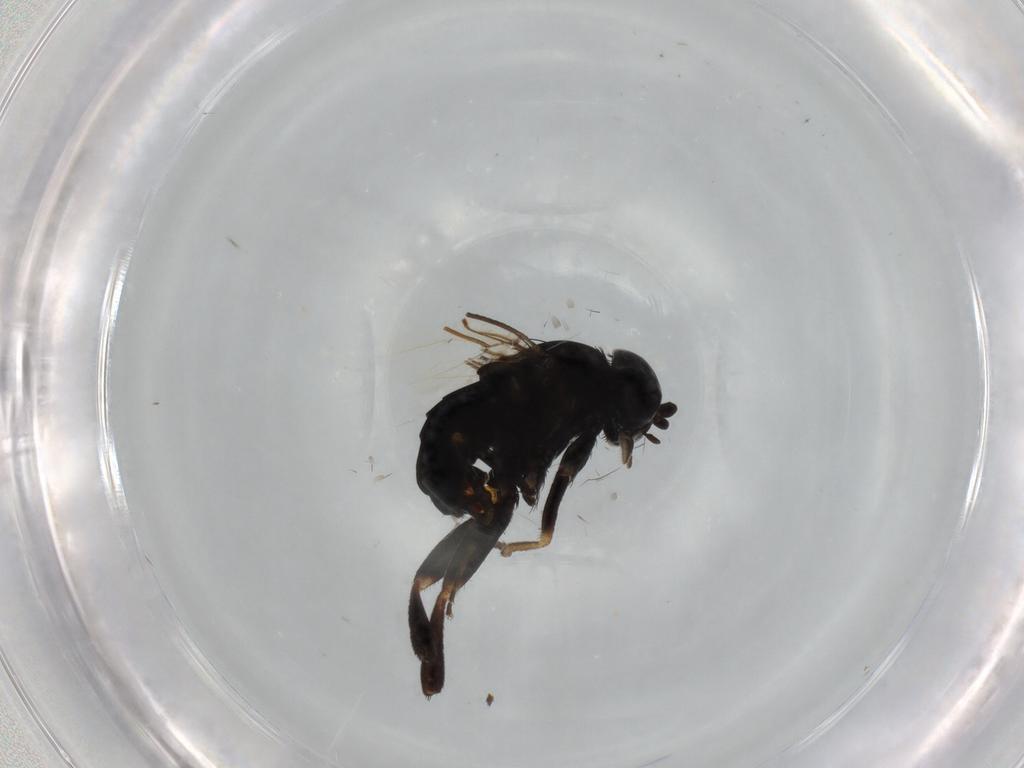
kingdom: Animalia
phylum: Arthropoda
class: Insecta
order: Diptera
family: Dolichopodidae
